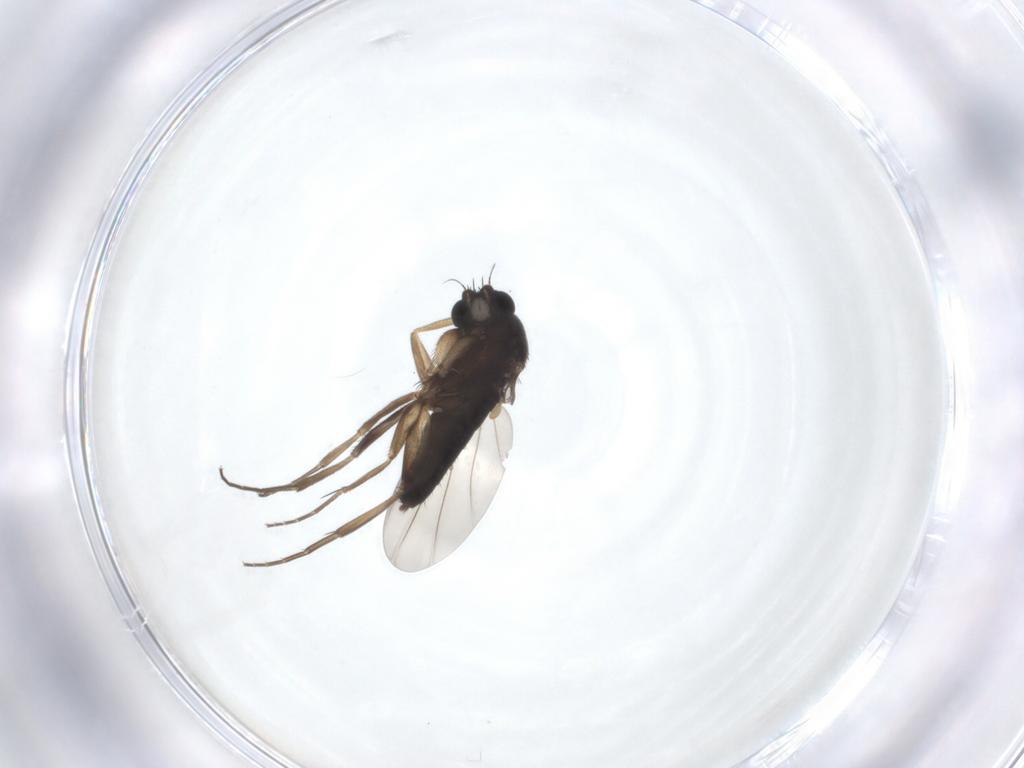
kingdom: Animalia
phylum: Arthropoda
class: Insecta
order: Diptera
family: Phoridae
